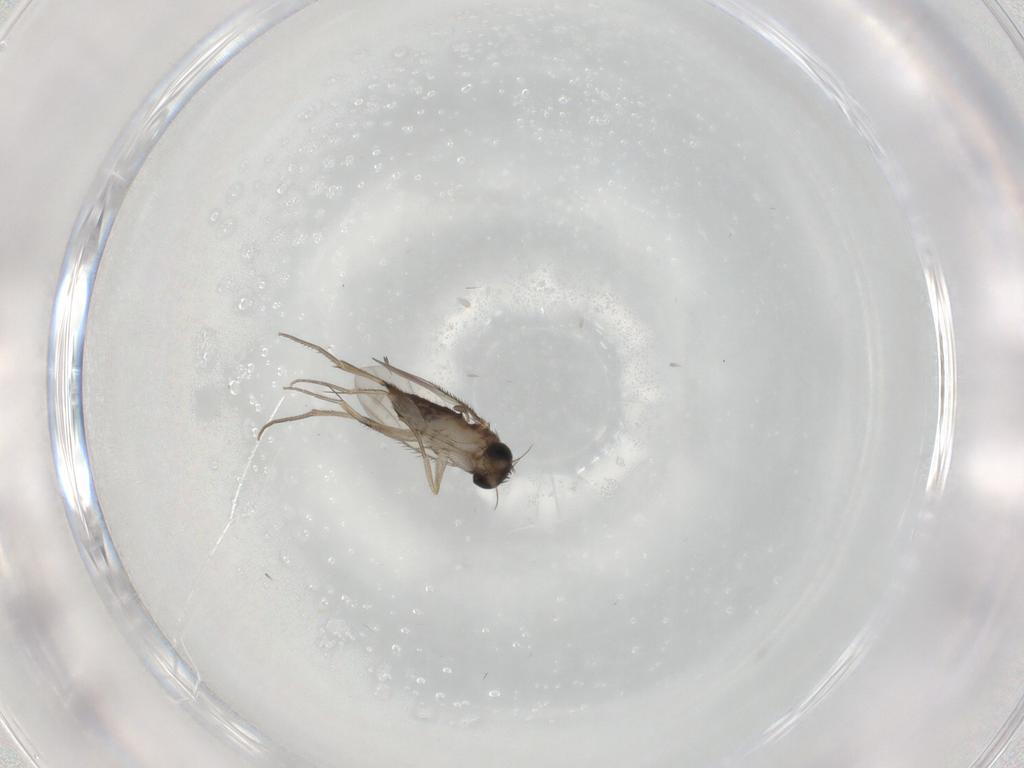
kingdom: Animalia
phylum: Arthropoda
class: Insecta
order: Diptera
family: Phoridae
